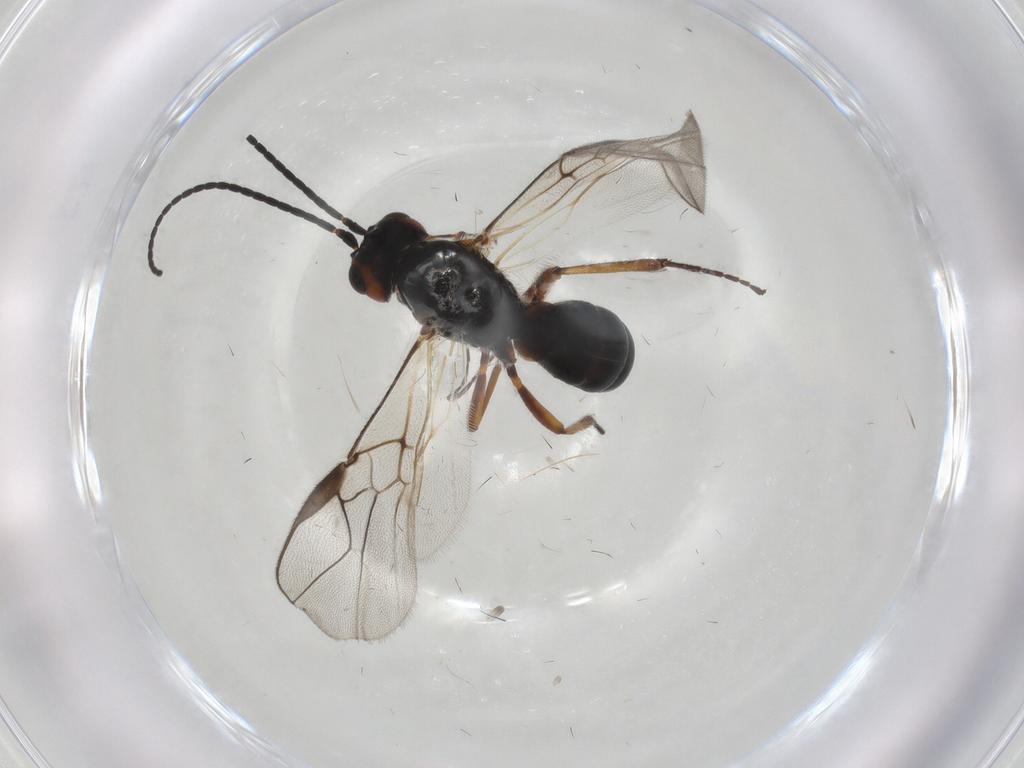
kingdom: Animalia
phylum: Arthropoda
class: Insecta
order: Hymenoptera
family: Braconidae
